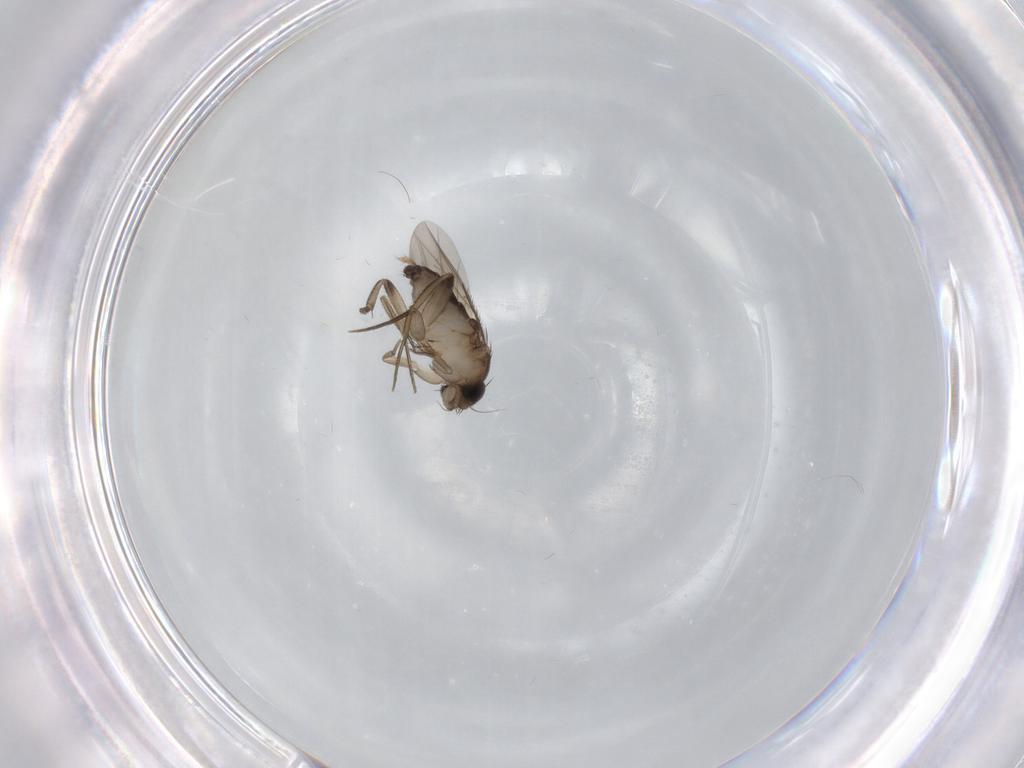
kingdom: Animalia
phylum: Arthropoda
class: Insecta
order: Diptera
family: Phoridae
